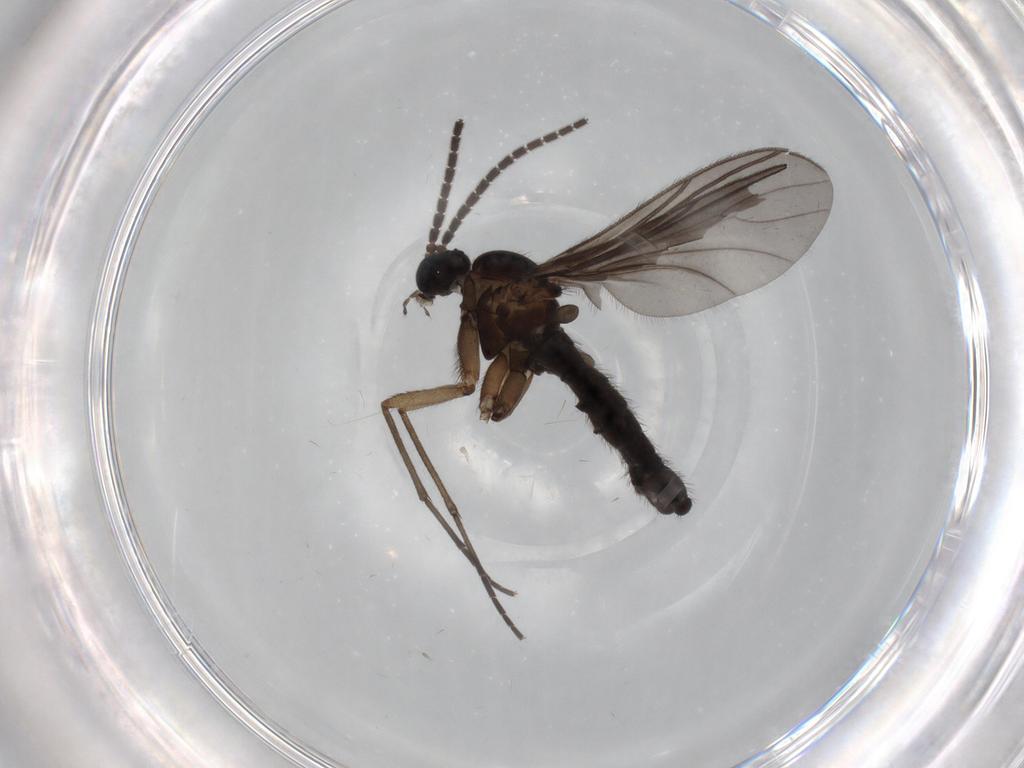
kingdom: Animalia
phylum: Arthropoda
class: Insecta
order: Diptera
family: Sciaridae
